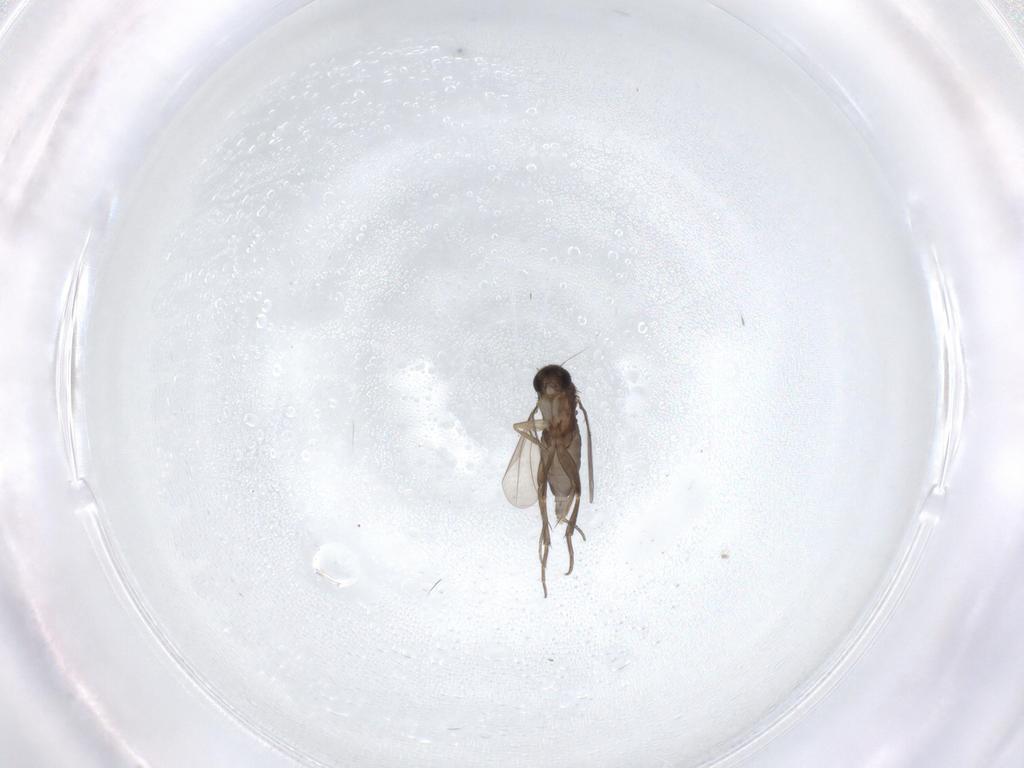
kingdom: Animalia
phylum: Arthropoda
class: Insecta
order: Diptera
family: Phoridae
